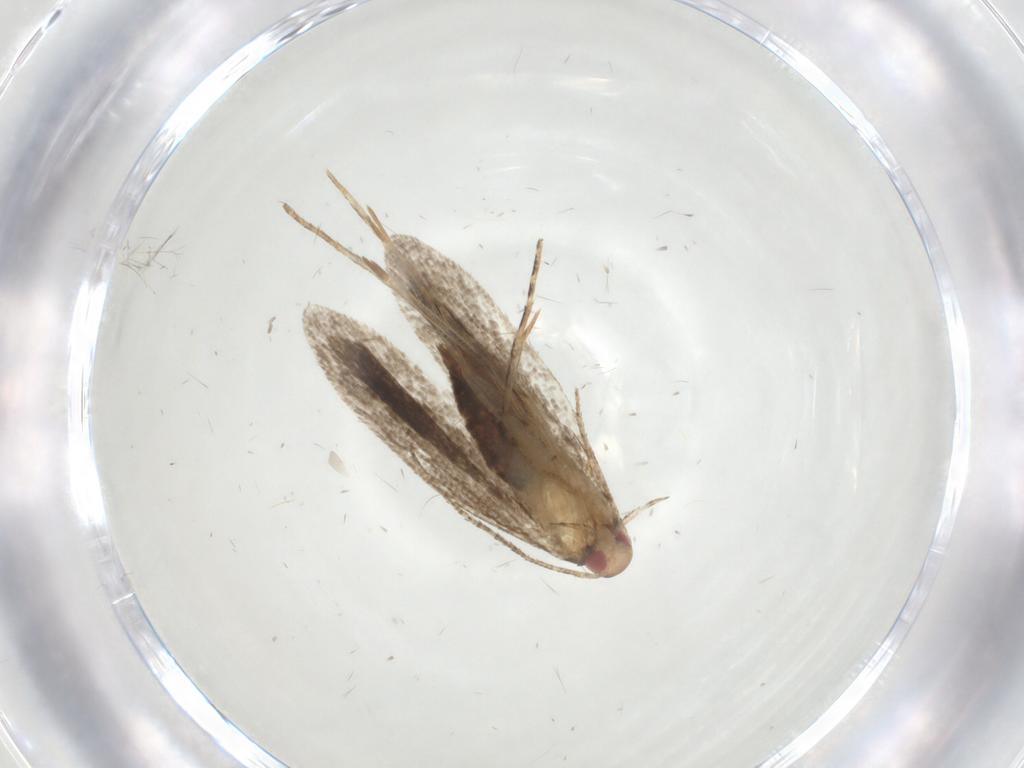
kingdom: Animalia
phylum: Arthropoda
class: Insecta
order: Lepidoptera
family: Gelechiidae
